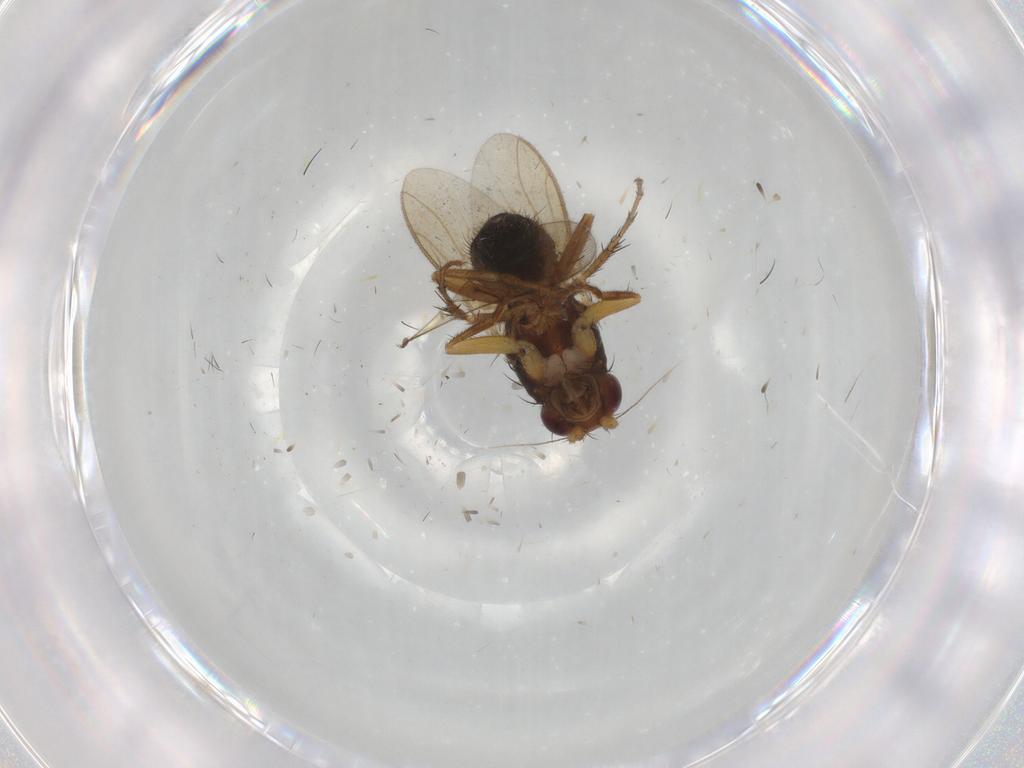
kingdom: Animalia
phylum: Arthropoda
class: Insecta
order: Diptera
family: Sphaeroceridae
